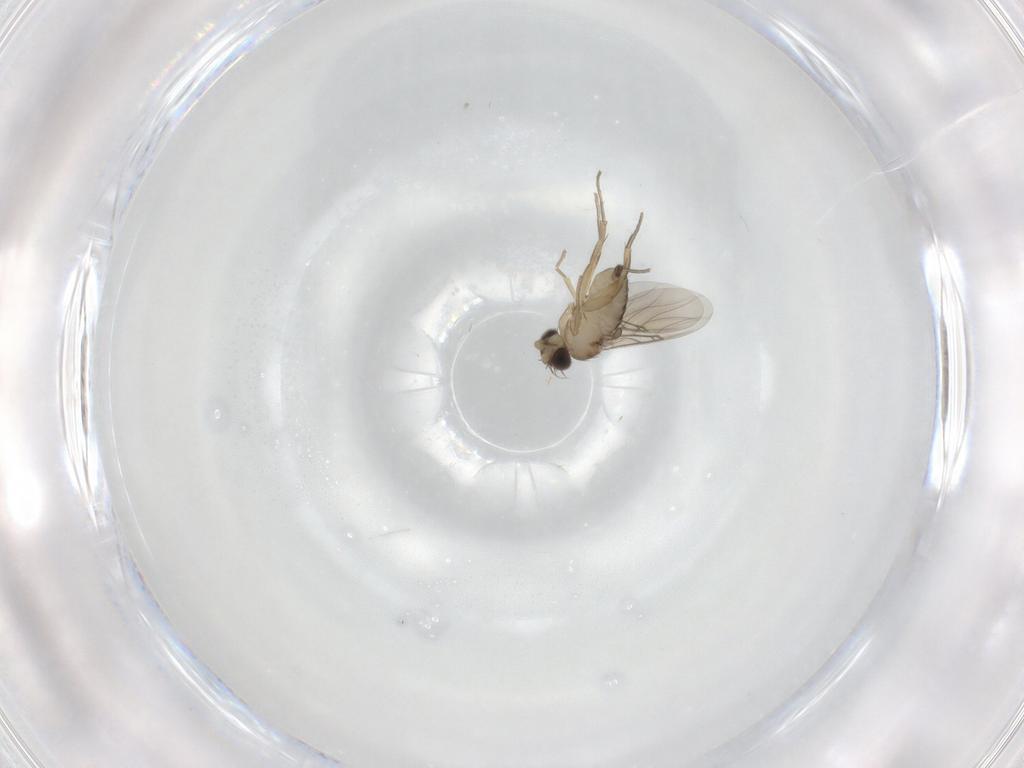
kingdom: Animalia
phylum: Arthropoda
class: Insecta
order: Diptera
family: Phoridae
